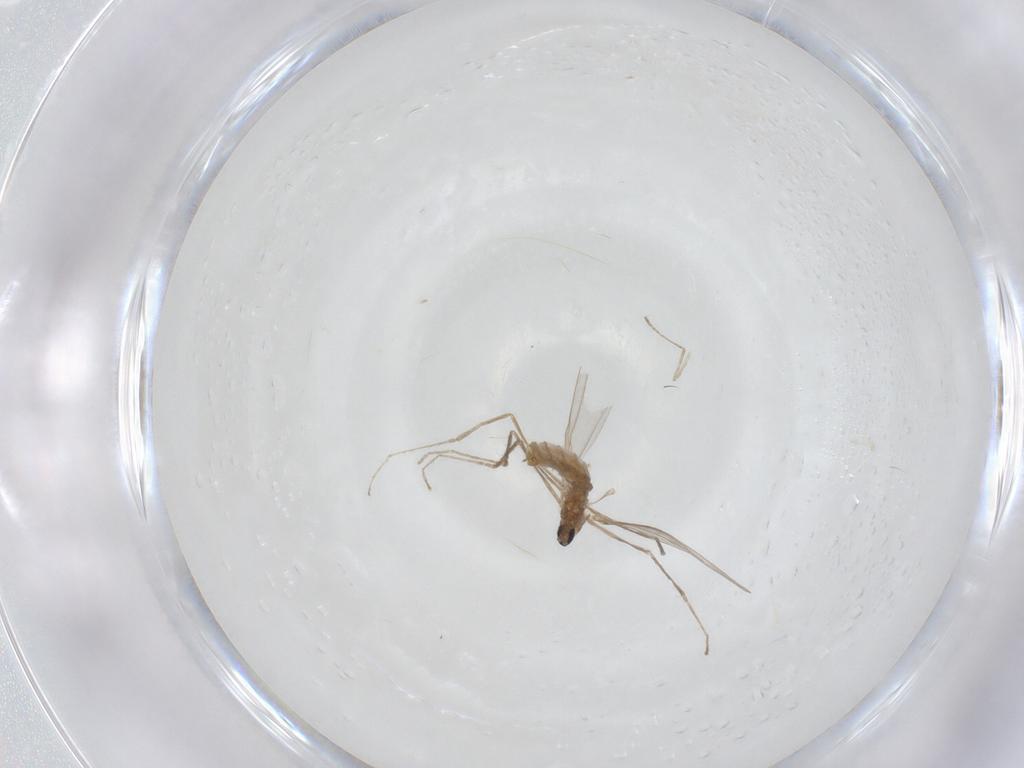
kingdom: Animalia
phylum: Arthropoda
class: Insecta
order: Diptera
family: Cecidomyiidae
